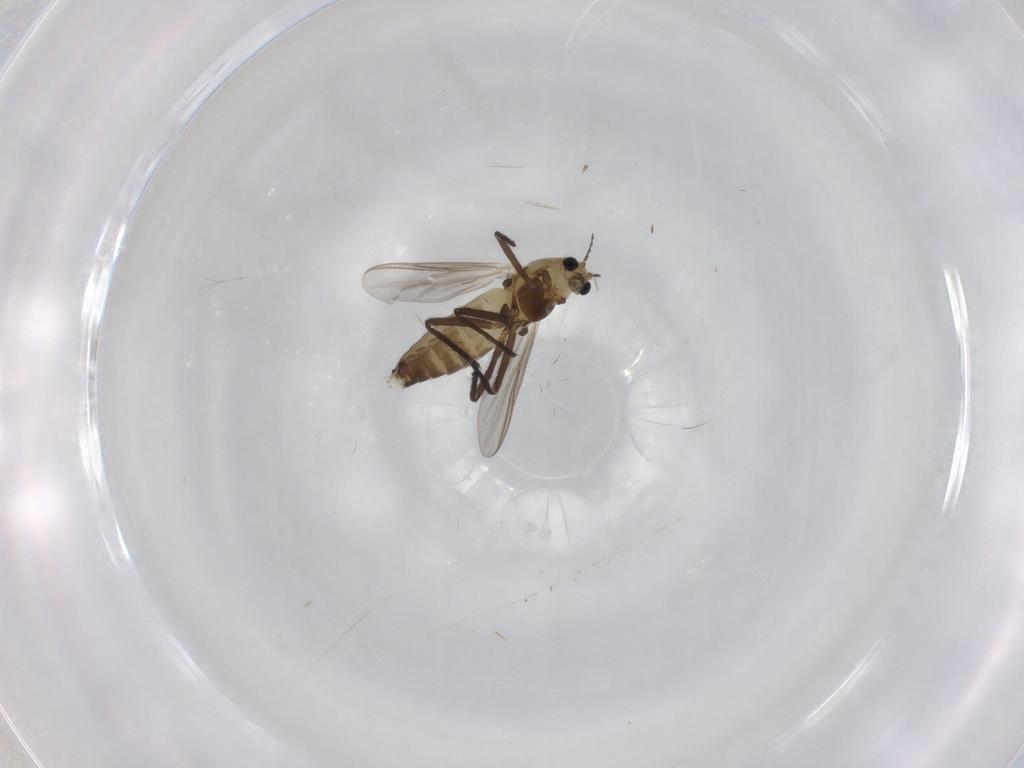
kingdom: Animalia
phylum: Arthropoda
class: Insecta
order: Diptera
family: Chironomidae
